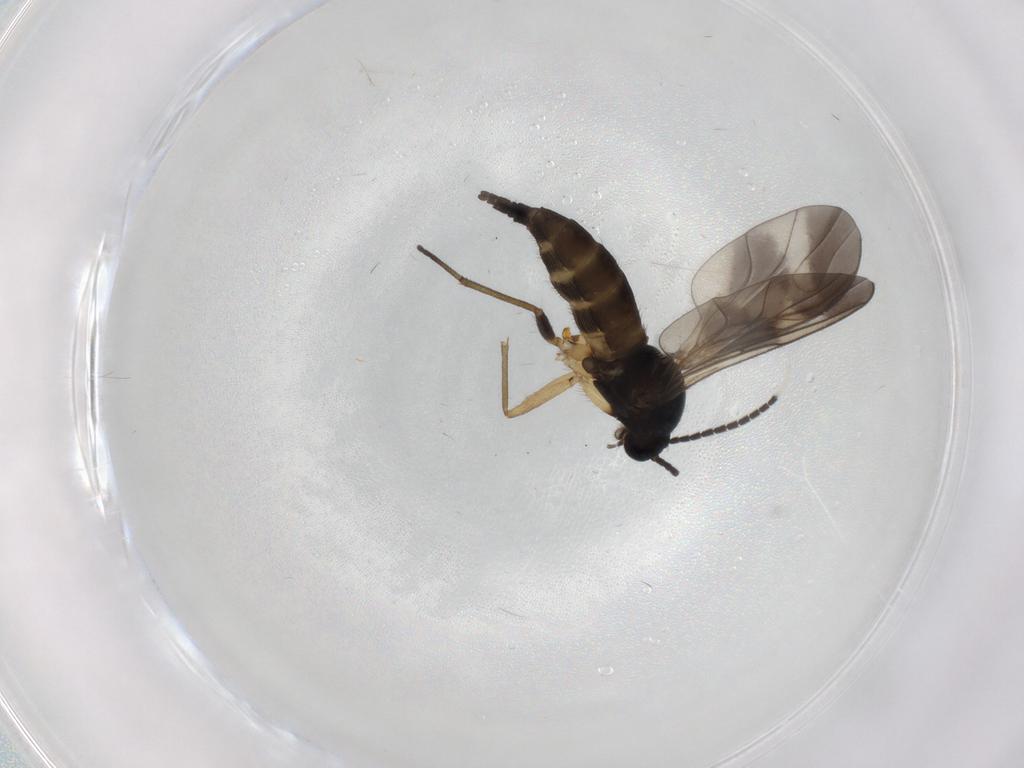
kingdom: Animalia
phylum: Arthropoda
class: Insecta
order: Diptera
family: Sciaridae
